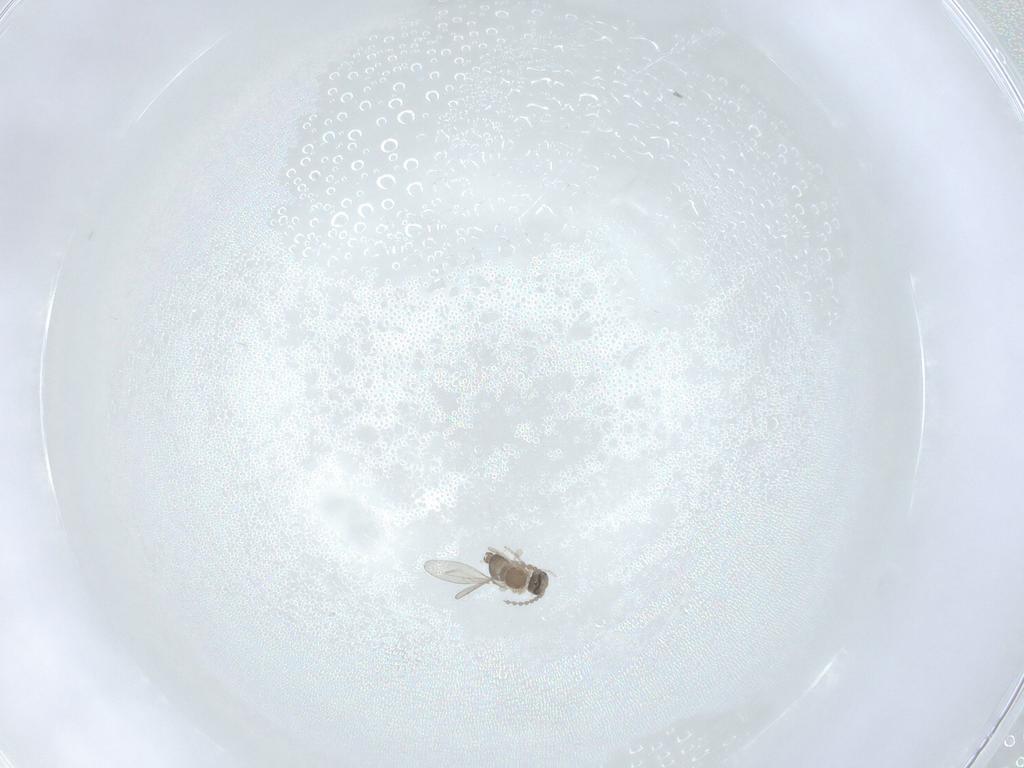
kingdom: Animalia
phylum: Arthropoda
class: Insecta
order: Diptera
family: Cecidomyiidae
